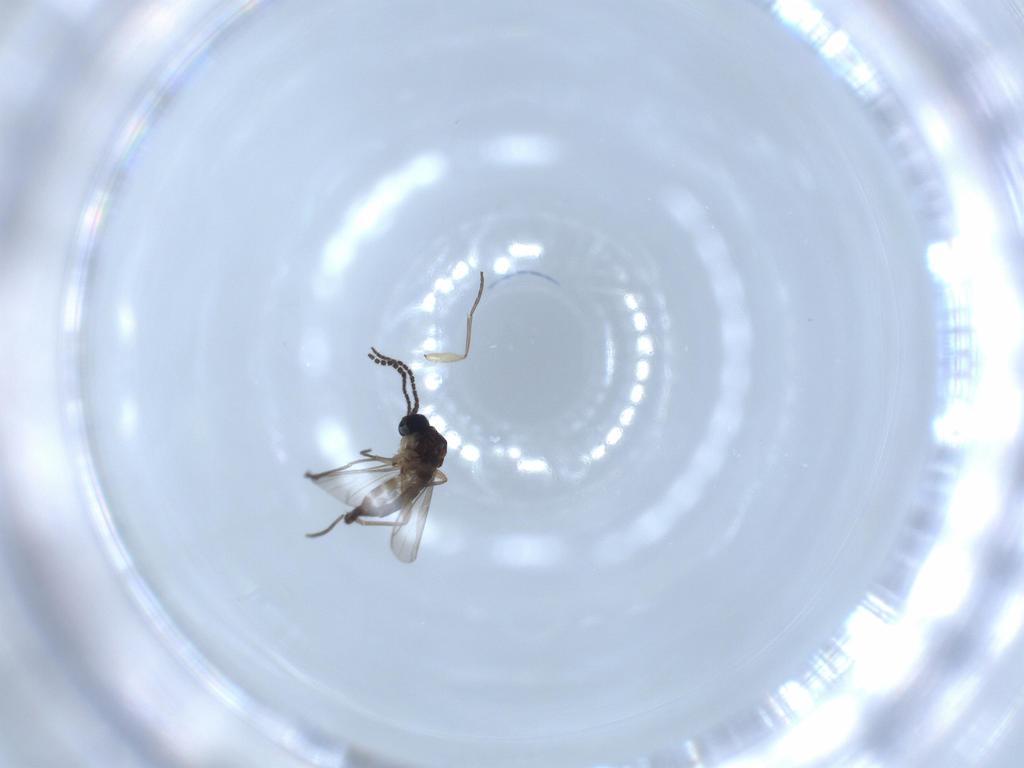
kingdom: Animalia
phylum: Arthropoda
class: Insecta
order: Diptera
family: Sciaridae
